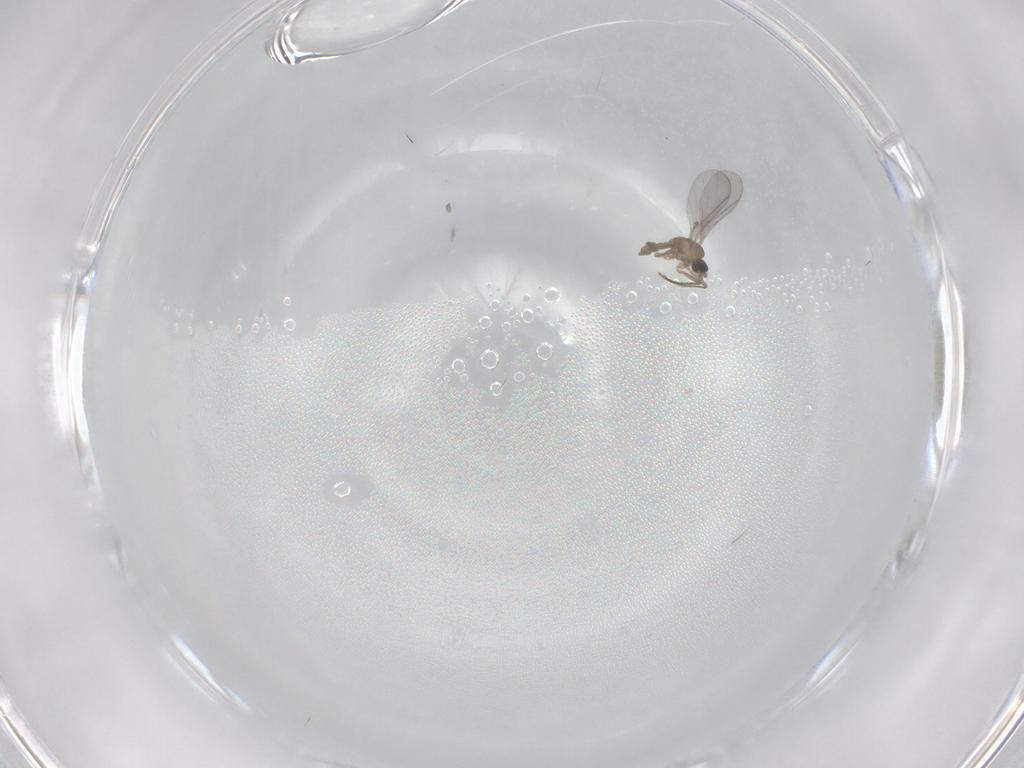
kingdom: Animalia
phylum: Arthropoda
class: Insecta
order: Diptera
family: Sciaridae
